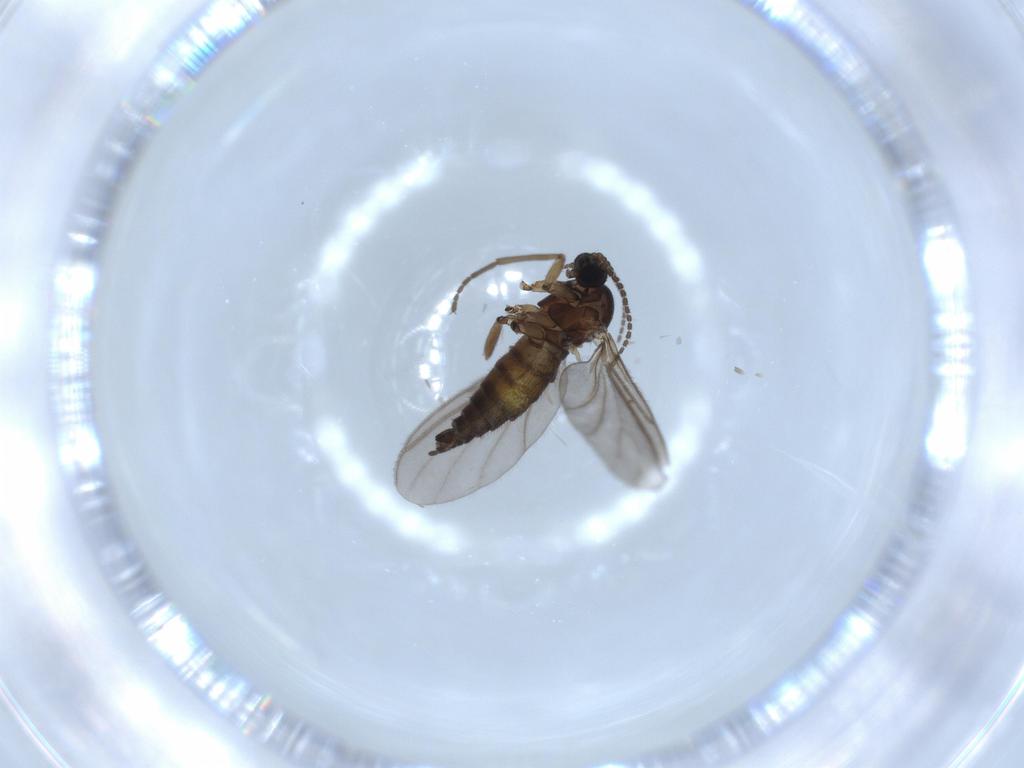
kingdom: Animalia
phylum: Arthropoda
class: Insecta
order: Diptera
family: Sciaridae
